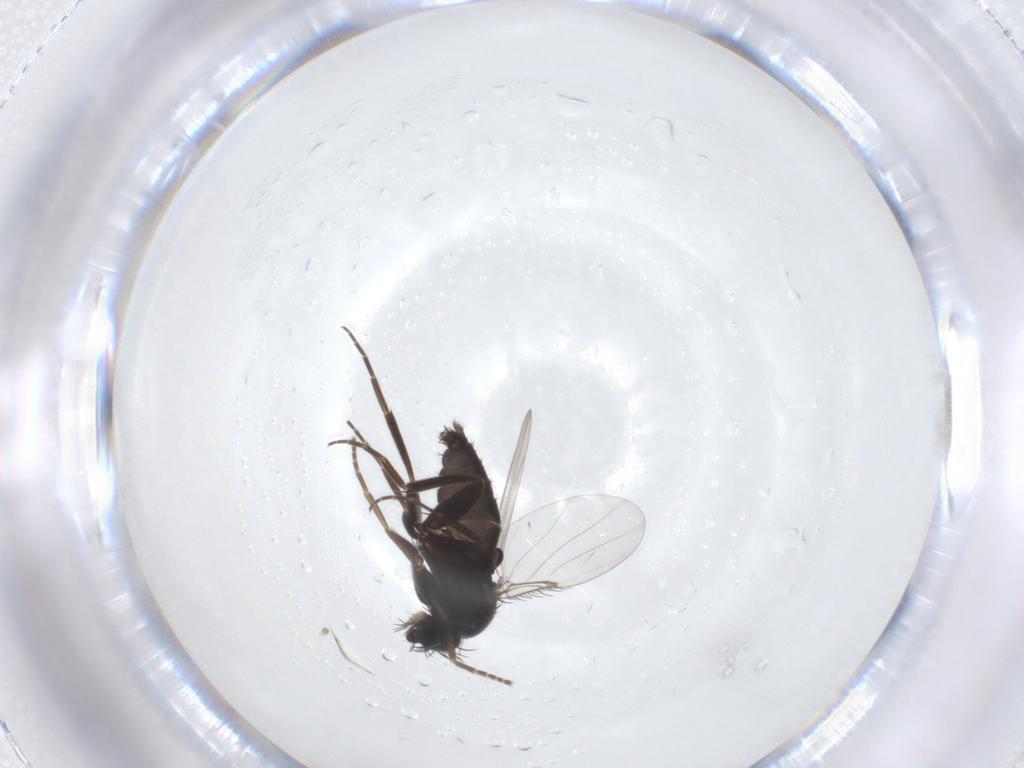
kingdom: Animalia
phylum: Arthropoda
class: Insecta
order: Diptera
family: Phoridae
